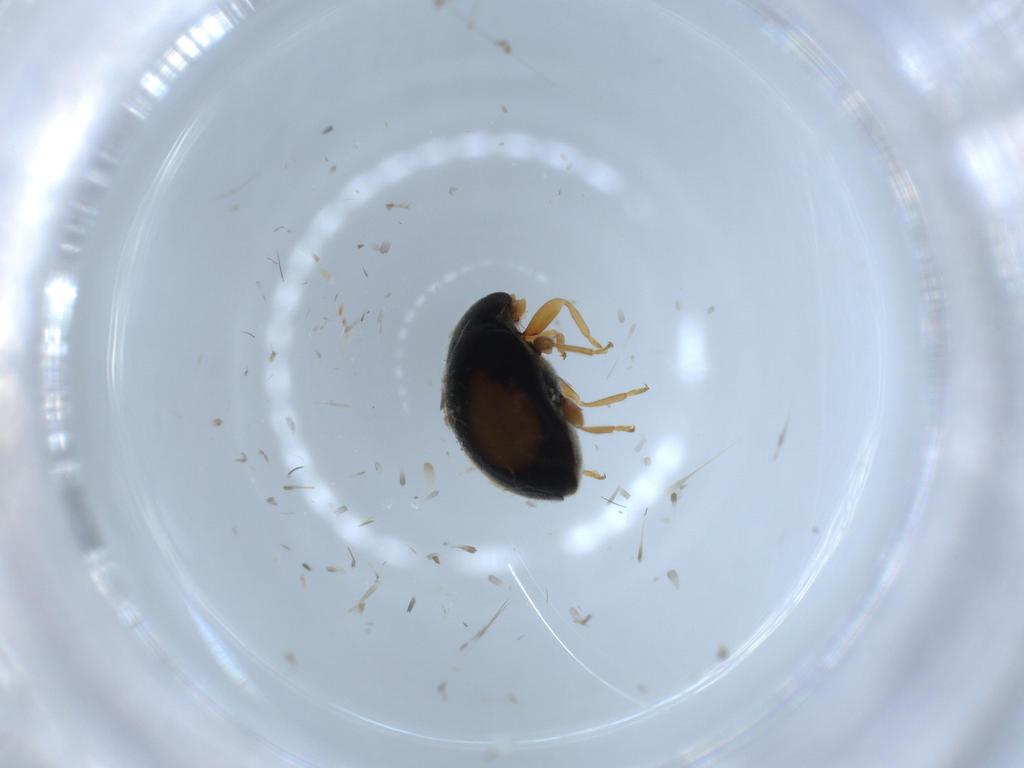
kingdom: Animalia
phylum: Arthropoda
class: Insecta
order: Coleoptera
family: Coccinellidae
